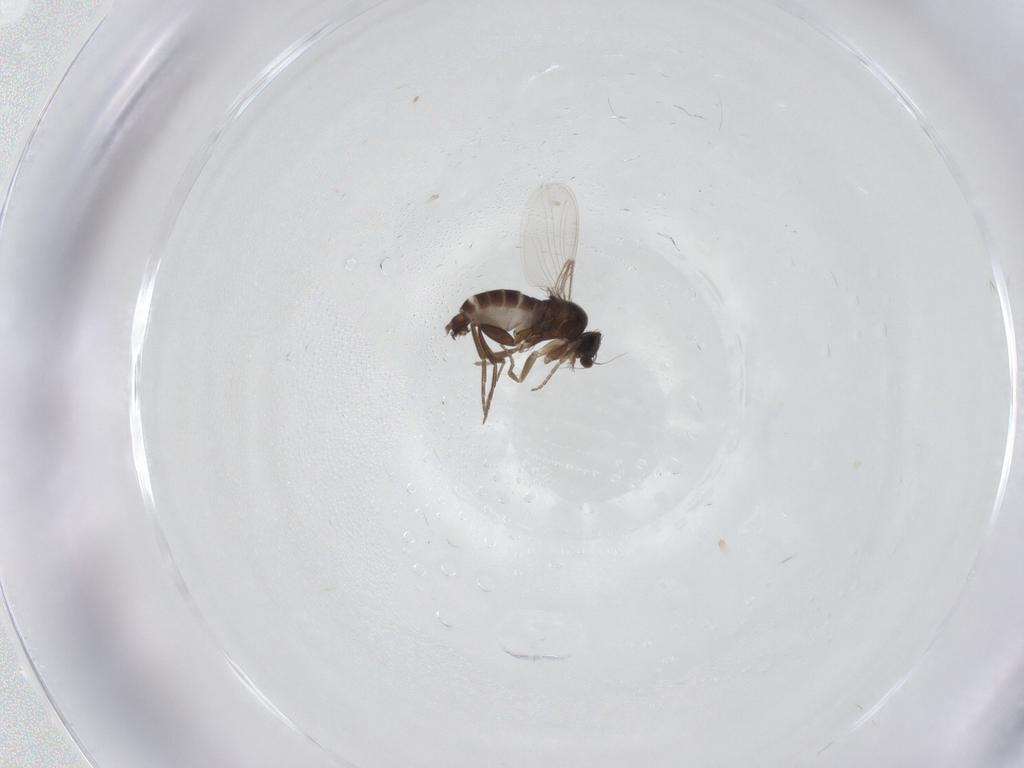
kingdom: Animalia
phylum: Arthropoda
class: Insecta
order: Diptera
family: Phoridae
